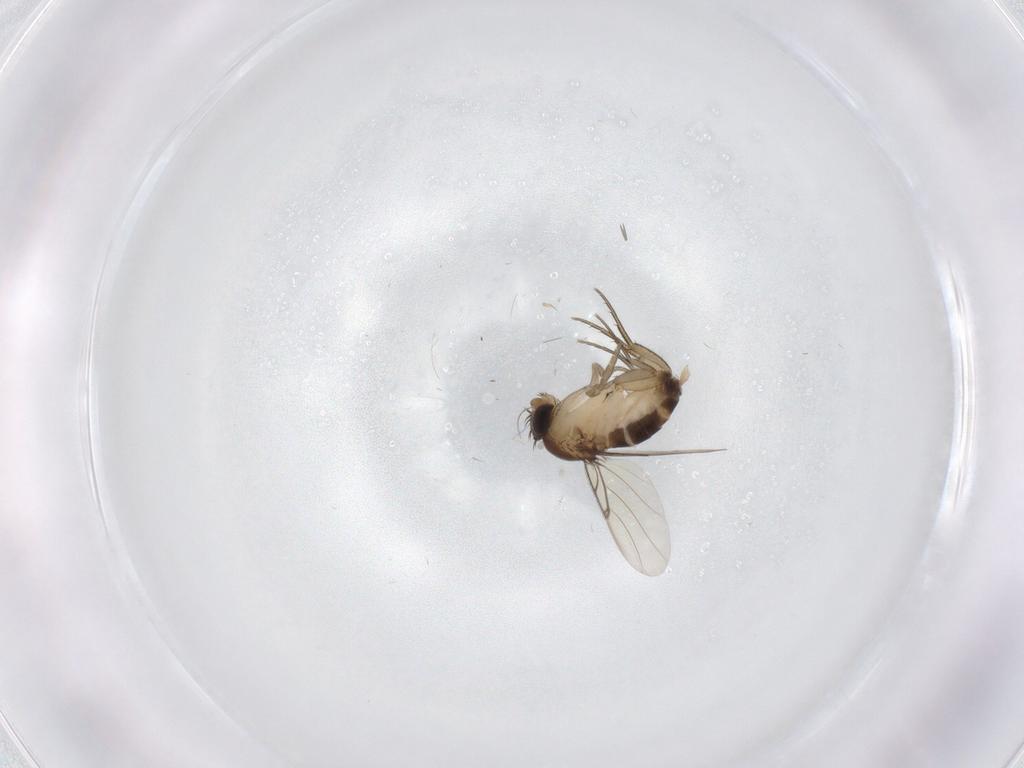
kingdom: Animalia
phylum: Arthropoda
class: Insecta
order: Diptera
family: Phoridae
